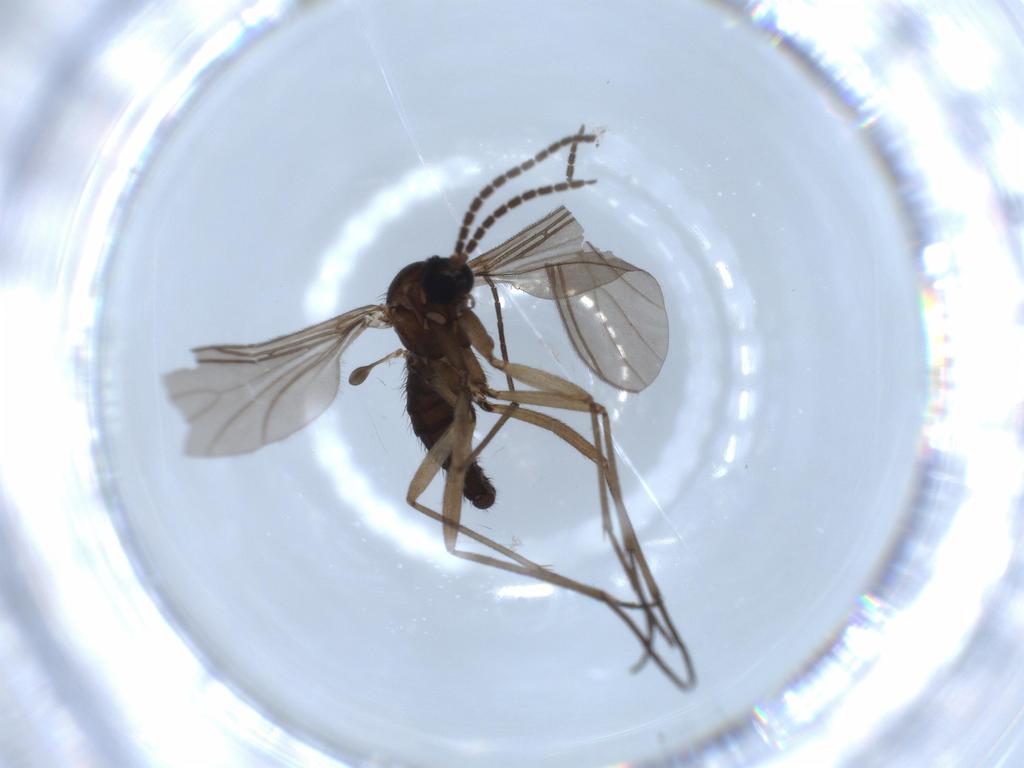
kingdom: Animalia
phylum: Arthropoda
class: Insecta
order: Diptera
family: Sciaridae
